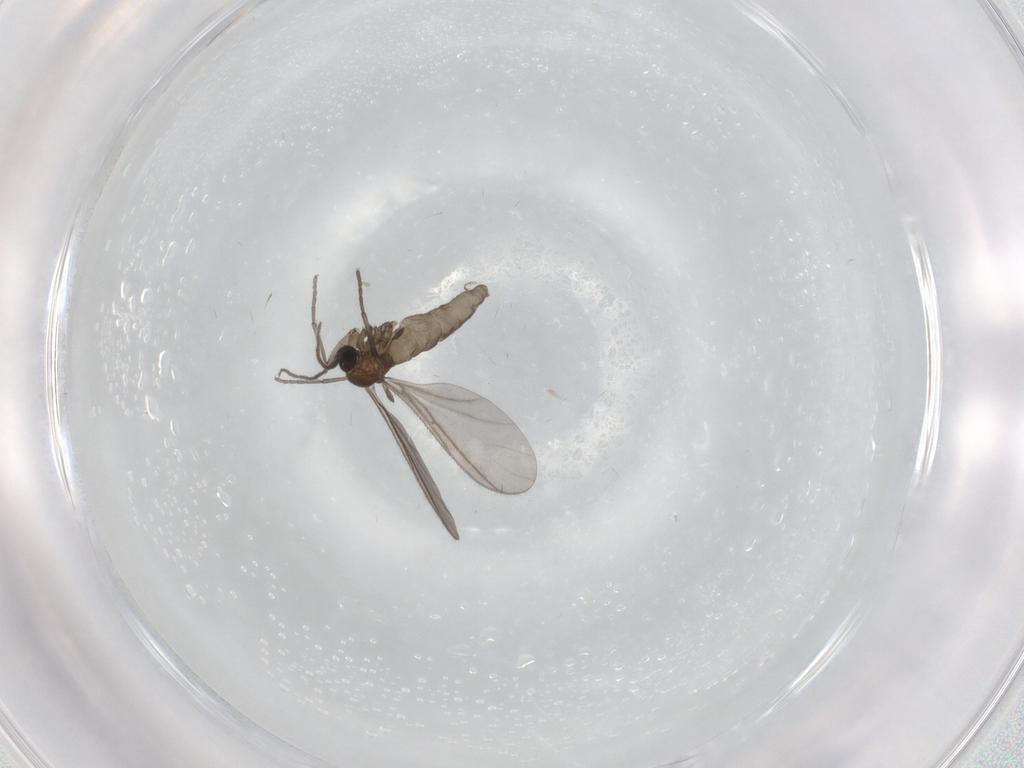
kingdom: Animalia
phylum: Arthropoda
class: Insecta
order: Diptera
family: Sciaridae
